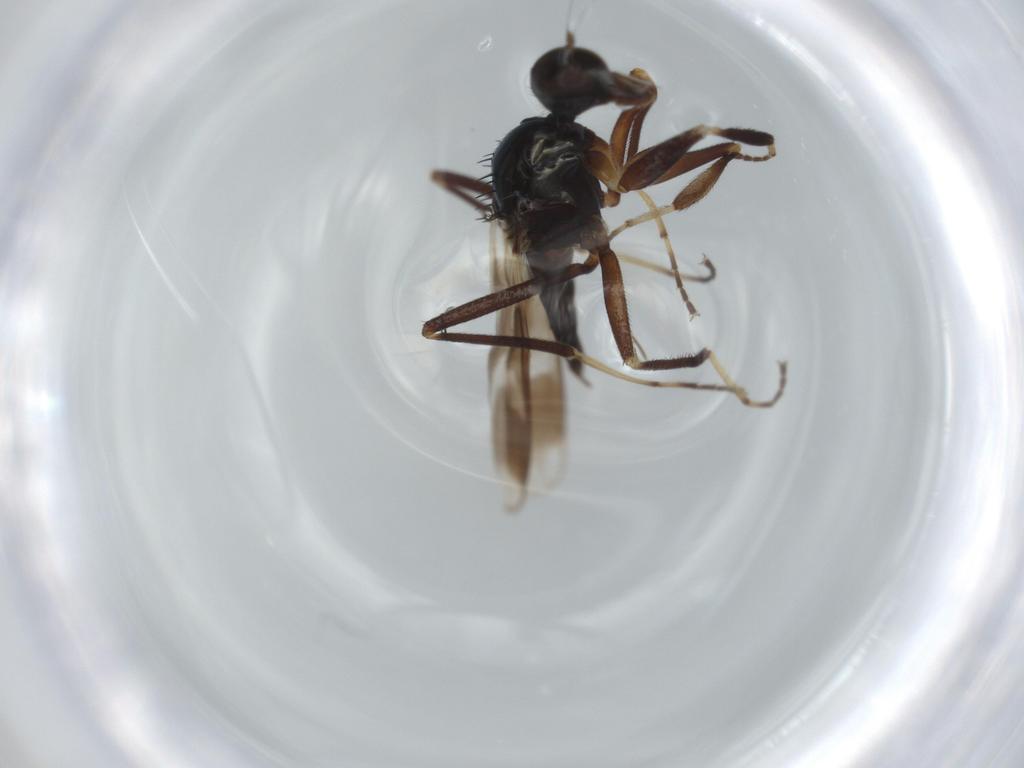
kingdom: Animalia
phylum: Arthropoda
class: Insecta
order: Diptera
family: Hybotidae
